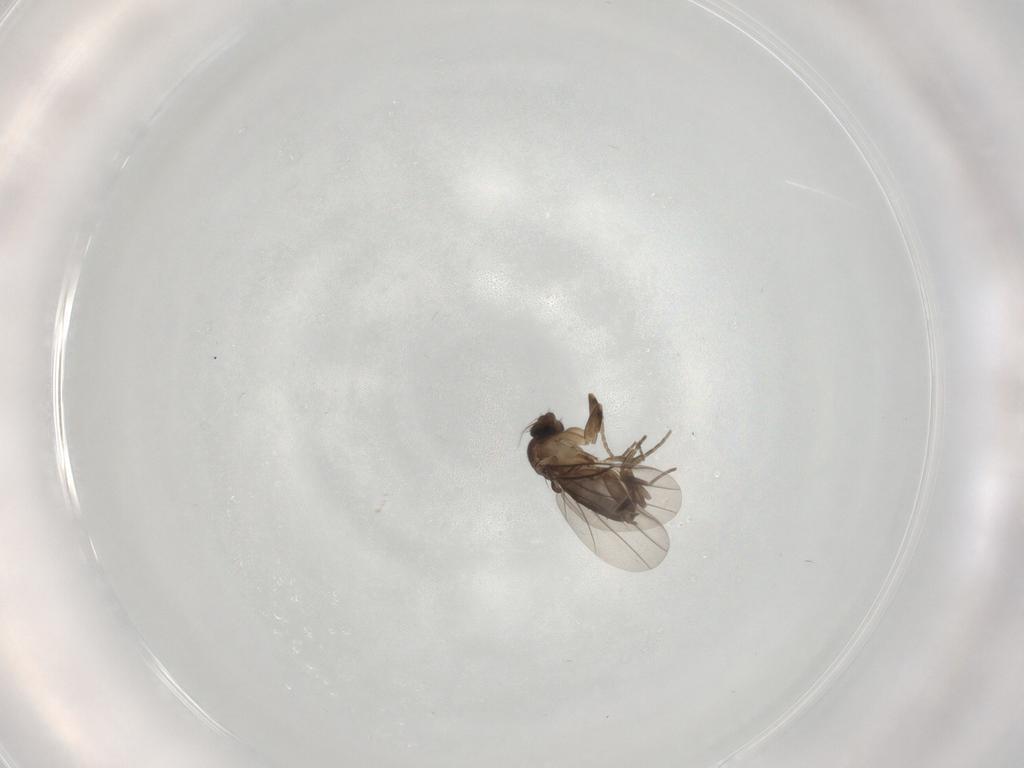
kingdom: Animalia
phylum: Arthropoda
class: Insecta
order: Diptera
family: Phoridae
